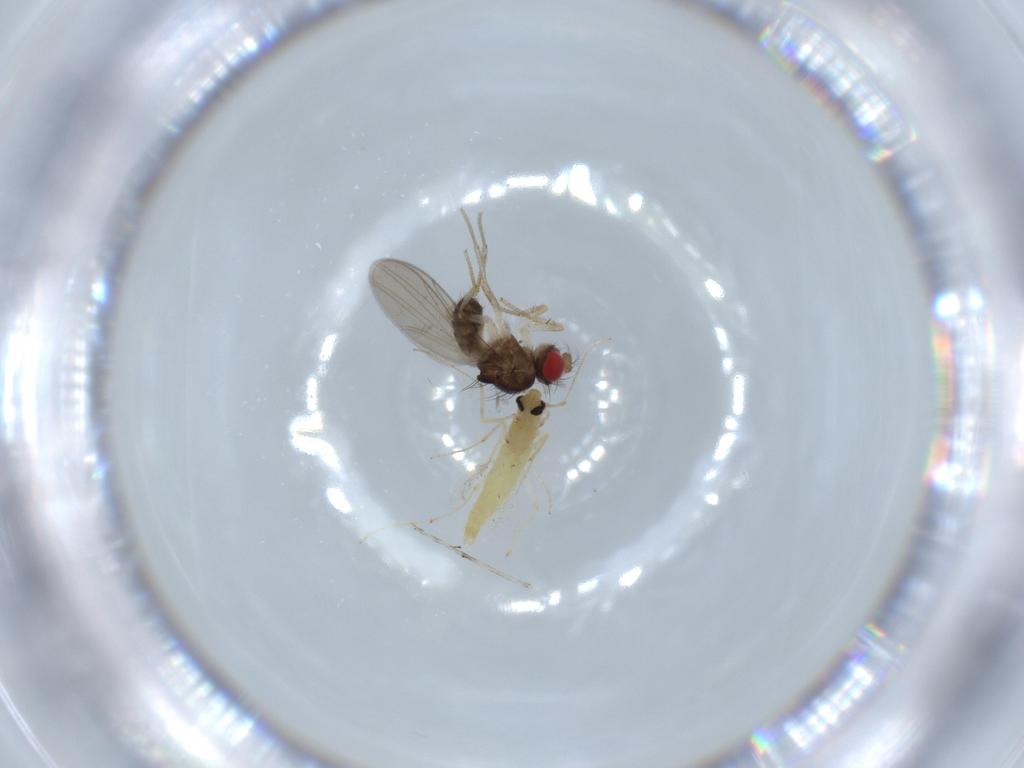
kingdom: Animalia
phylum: Arthropoda
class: Insecta
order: Diptera
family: Chironomidae
